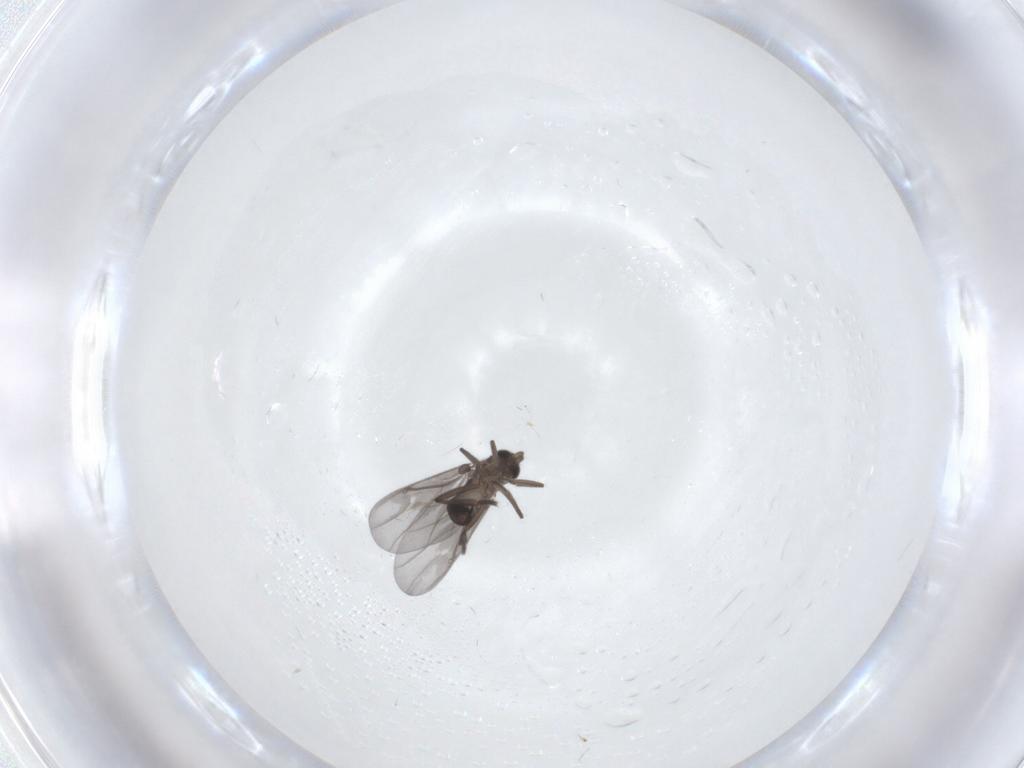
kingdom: Animalia
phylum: Arthropoda
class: Insecta
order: Diptera
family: Phoridae
